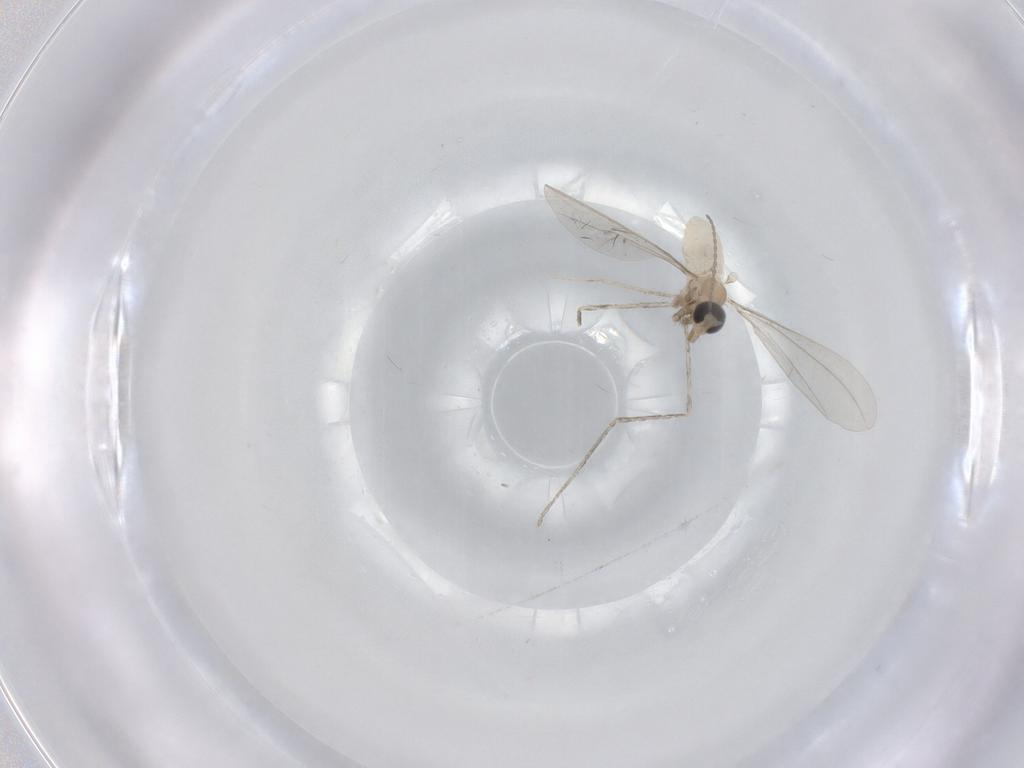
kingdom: Animalia
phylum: Arthropoda
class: Insecta
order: Diptera
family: Cecidomyiidae
